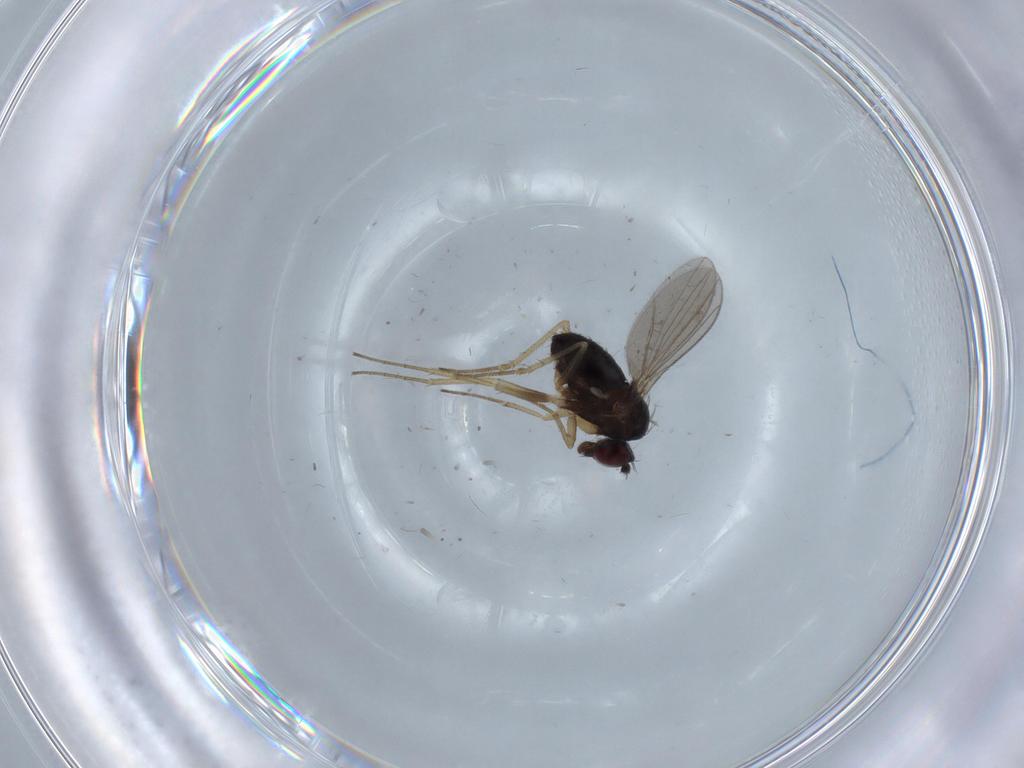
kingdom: Animalia
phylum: Arthropoda
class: Insecta
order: Diptera
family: Dolichopodidae
